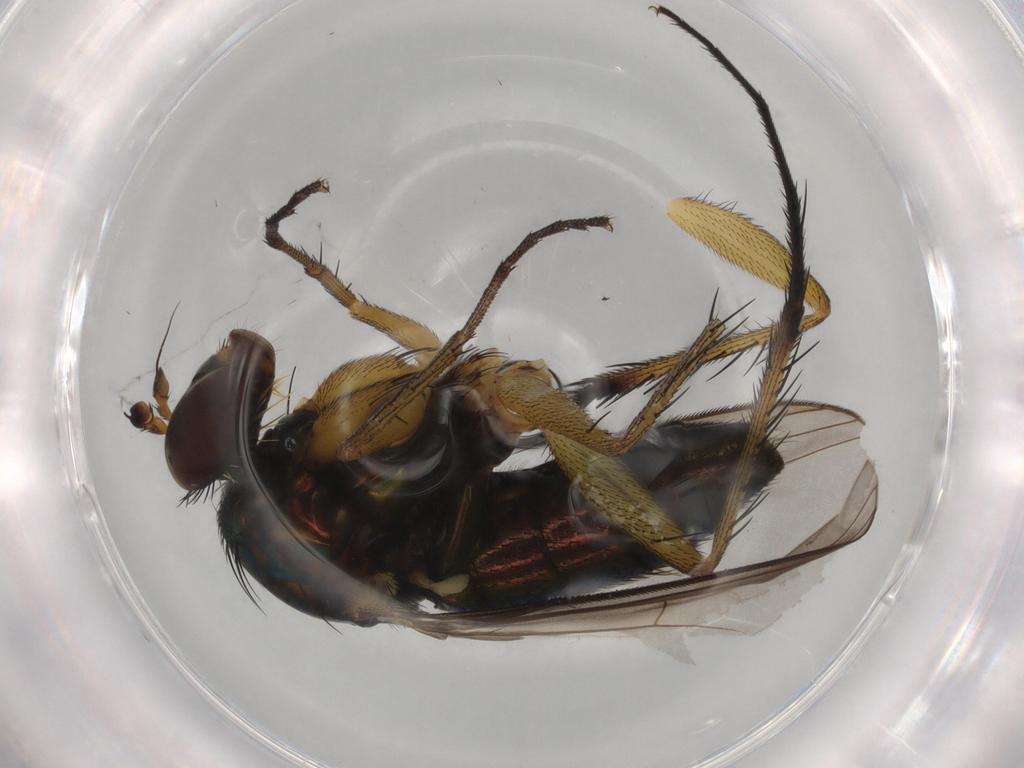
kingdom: Animalia
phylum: Arthropoda
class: Insecta
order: Diptera
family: Dolichopodidae
